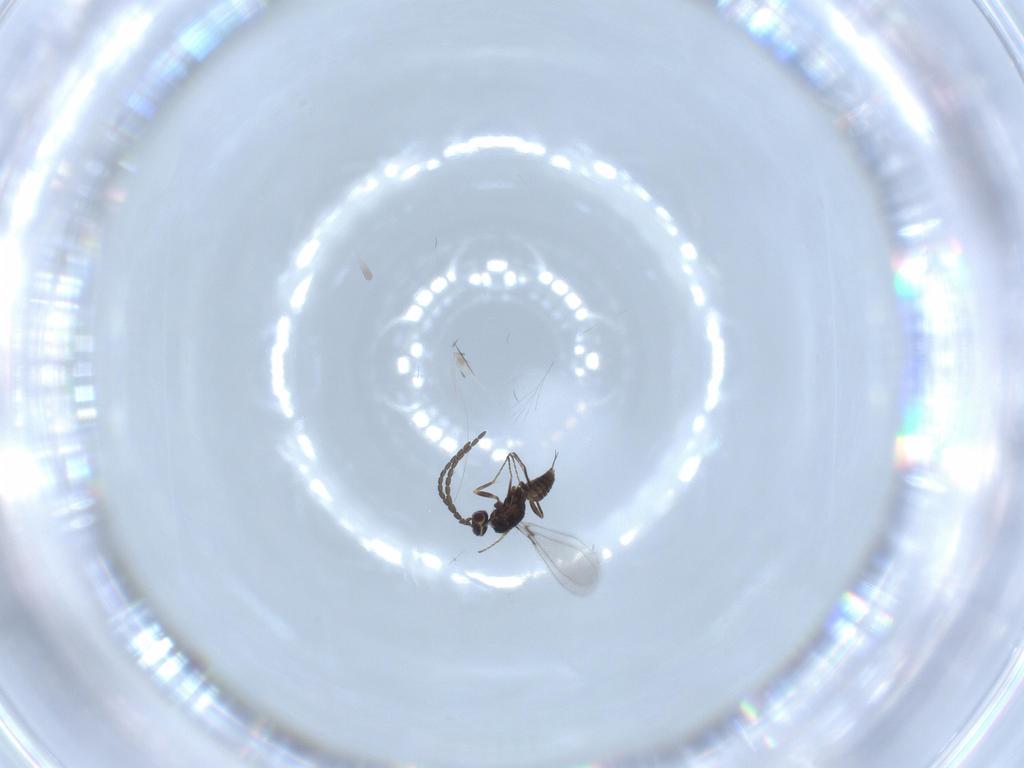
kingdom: Animalia
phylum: Arthropoda
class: Insecta
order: Hymenoptera
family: Mymaridae
